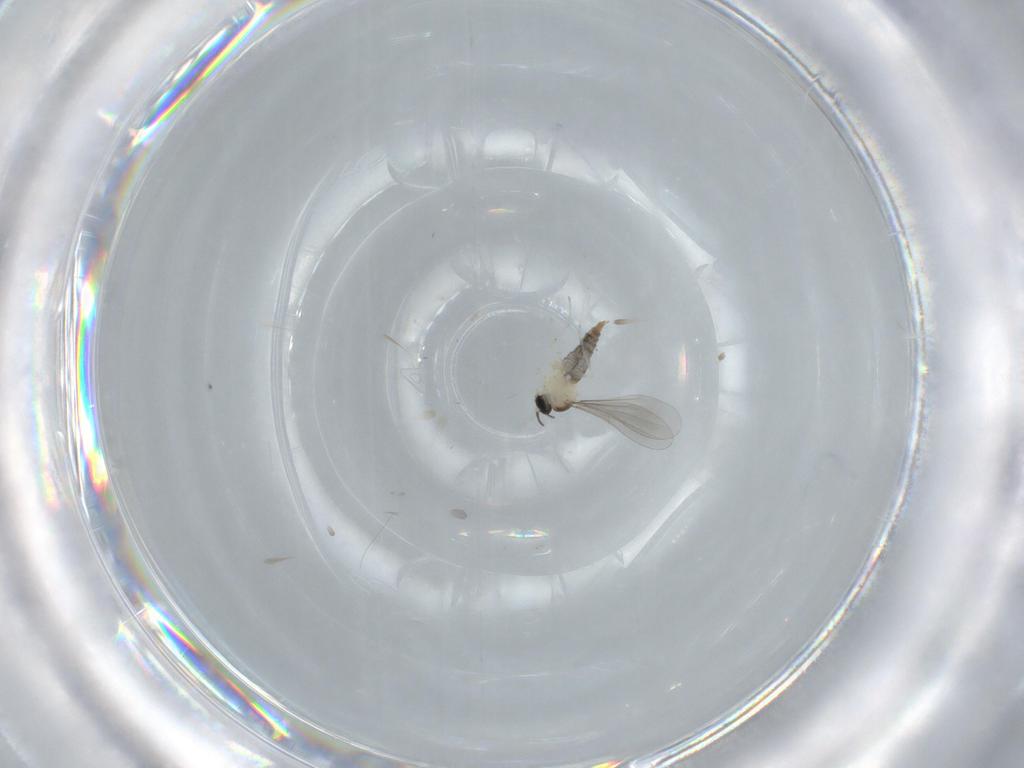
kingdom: Animalia
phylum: Arthropoda
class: Insecta
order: Diptera
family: Cecidomyiidae
